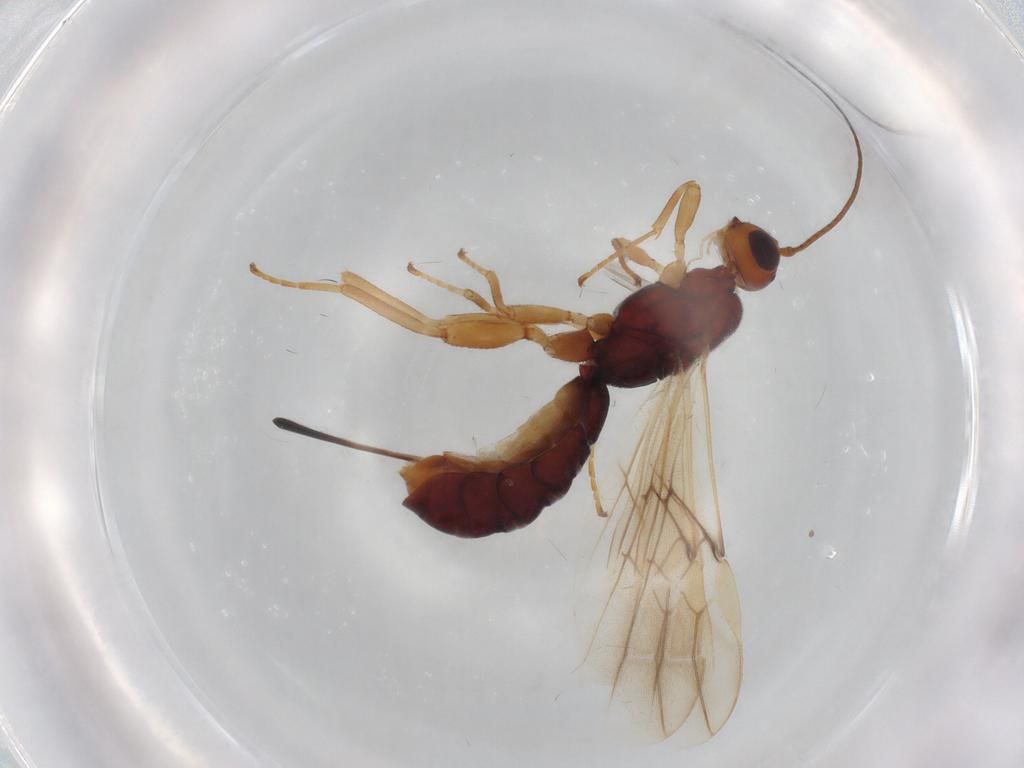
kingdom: Animalia
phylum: Arthropoda
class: Insecta
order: Hymenoptera
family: Braconidae
